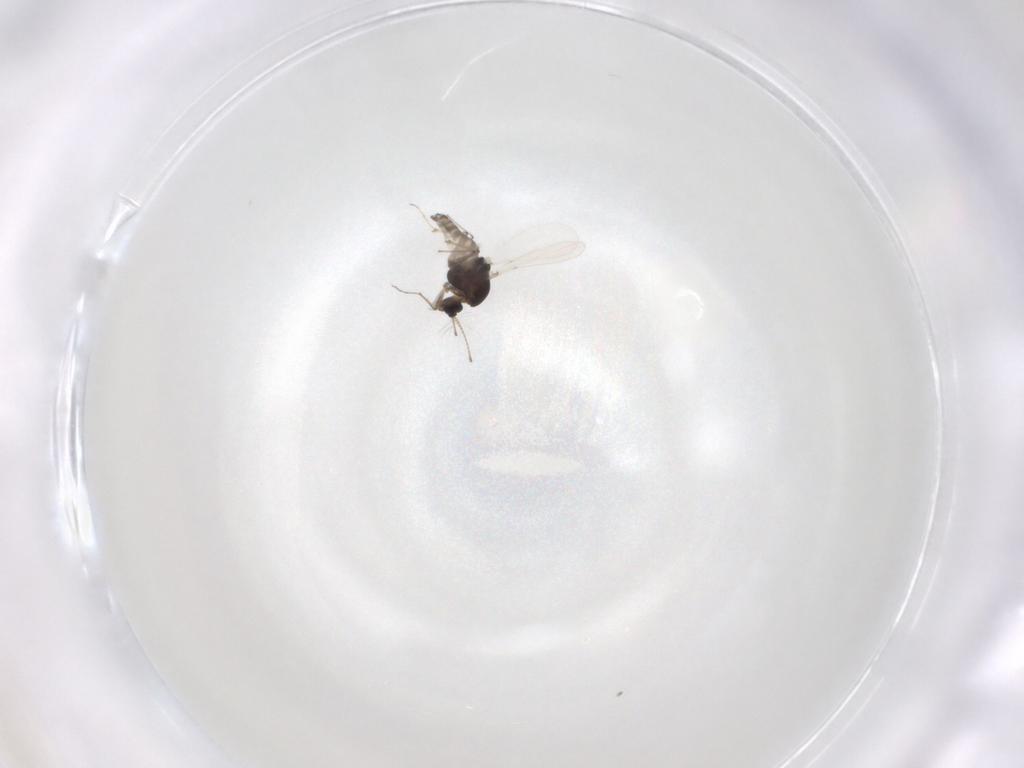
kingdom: Animalia
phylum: Arthropoda
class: Insecta
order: Diptera
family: Chironomidae
